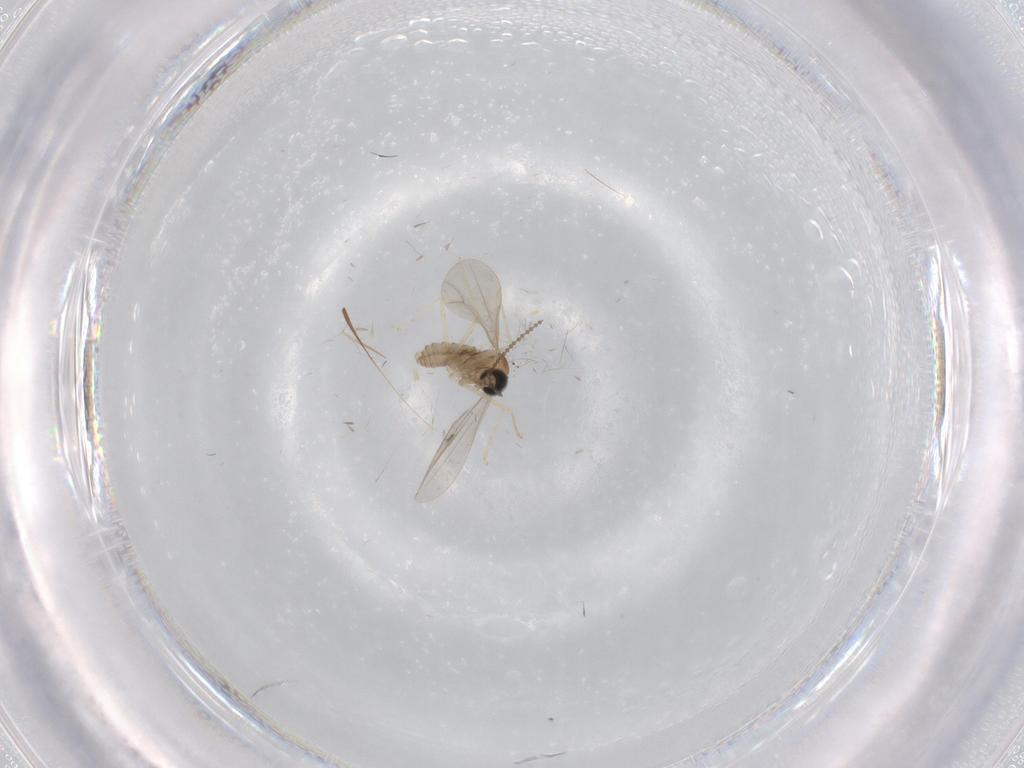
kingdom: Animalia
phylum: Arthropoda
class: Insecta
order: Diptera
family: Cecidomyiidae
